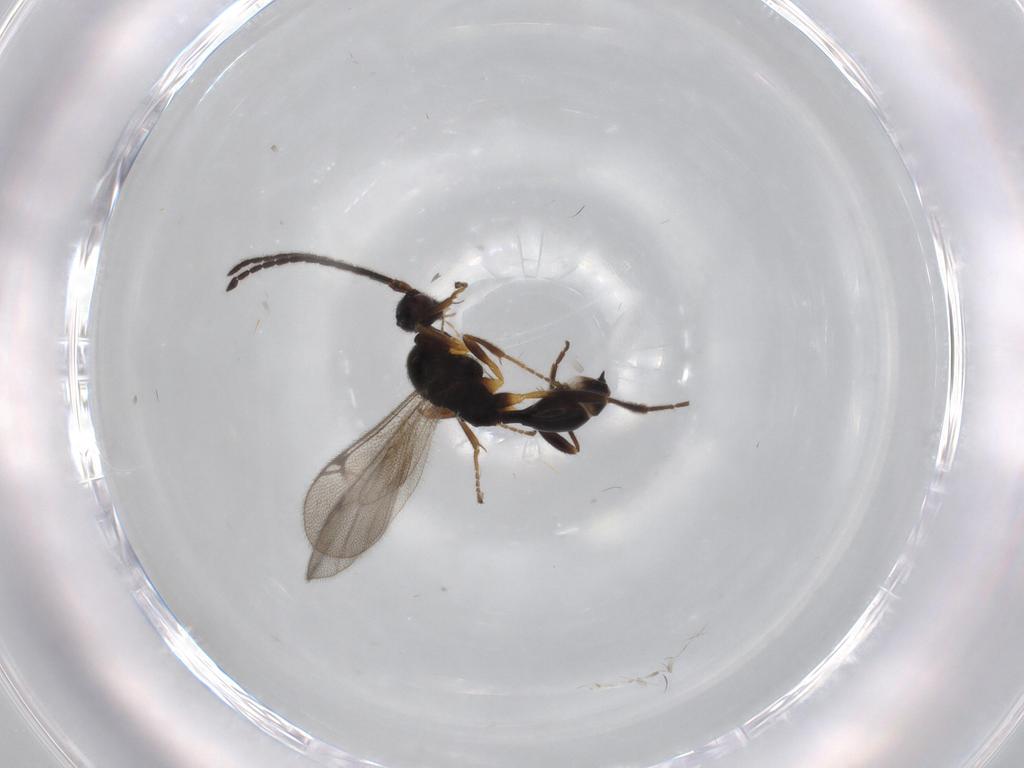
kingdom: Animalia
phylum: Arthropoda
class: Insecta
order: Hymenoptera
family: Proctotrupidae
